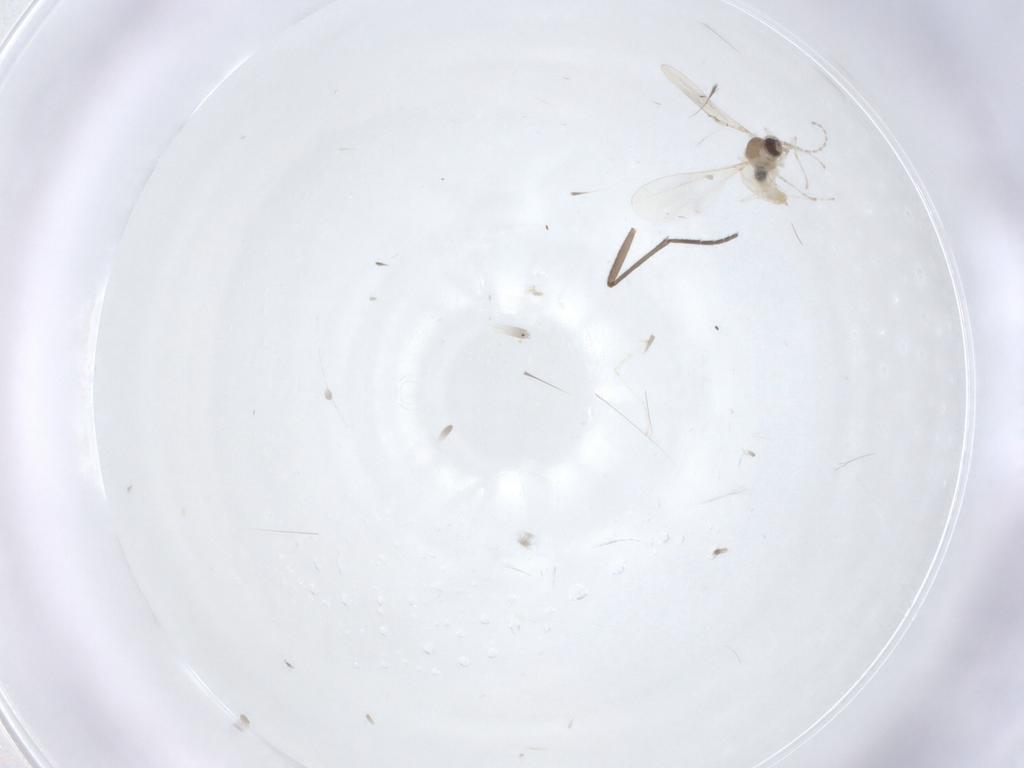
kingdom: Animalia
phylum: Arthropoda
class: Insecta
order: Diptera
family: Cecidomyiidae
